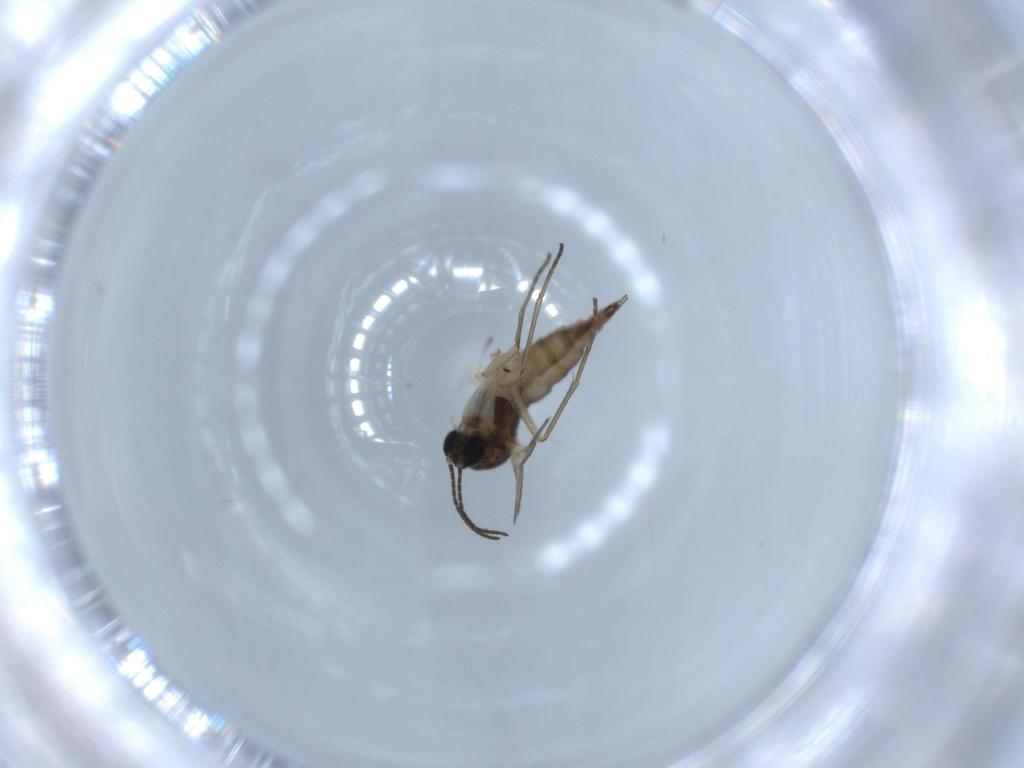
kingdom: Animalia
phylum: Arthropoda
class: Insecta
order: Diptera
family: Sciaridae
